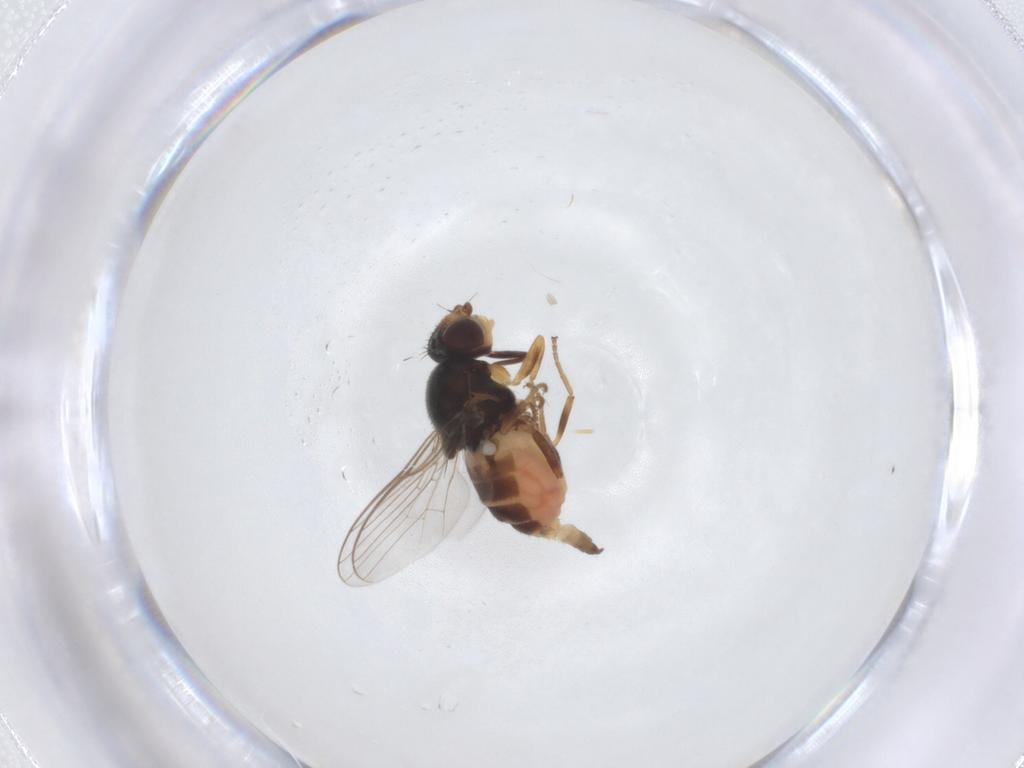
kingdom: Animalia
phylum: Arthropoda
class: Insecta
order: Diptera
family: Chloropidae
